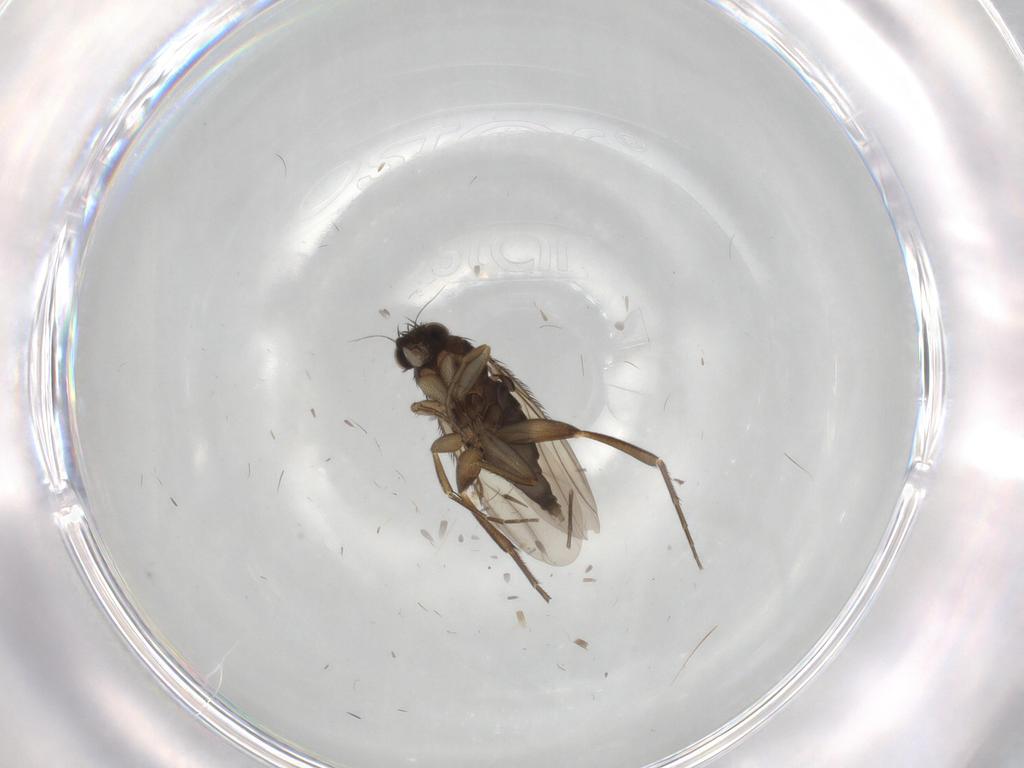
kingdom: Animalia
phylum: Arthropoda
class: Insecta
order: Diptera
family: Phoridae
